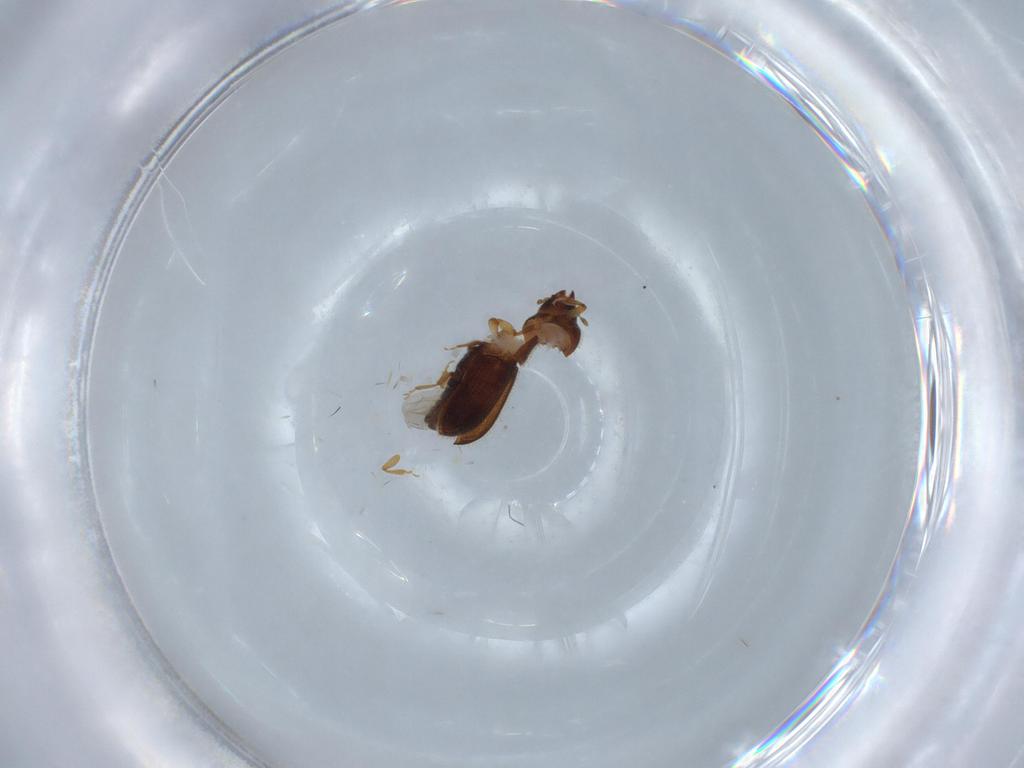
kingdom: Animalia
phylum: Arthropoda
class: Insecta
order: Coleoptera
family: Curculionidae
